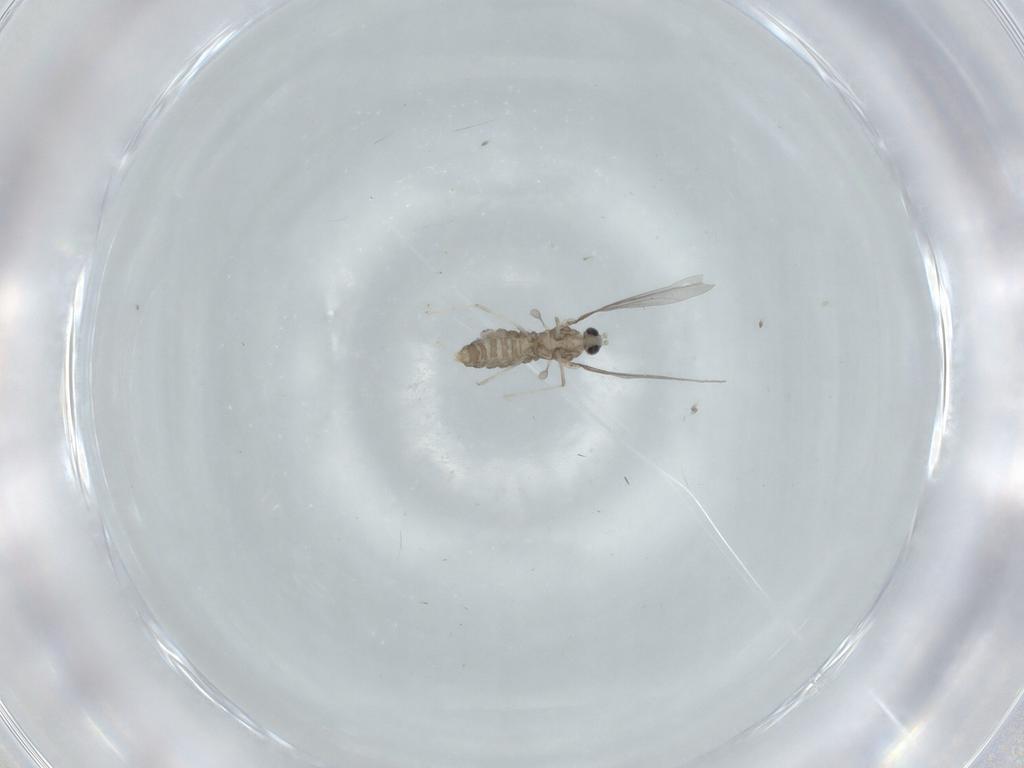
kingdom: Animalia
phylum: Arthropoda
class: Insecta
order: Diptera
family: Cecidomyiidae
